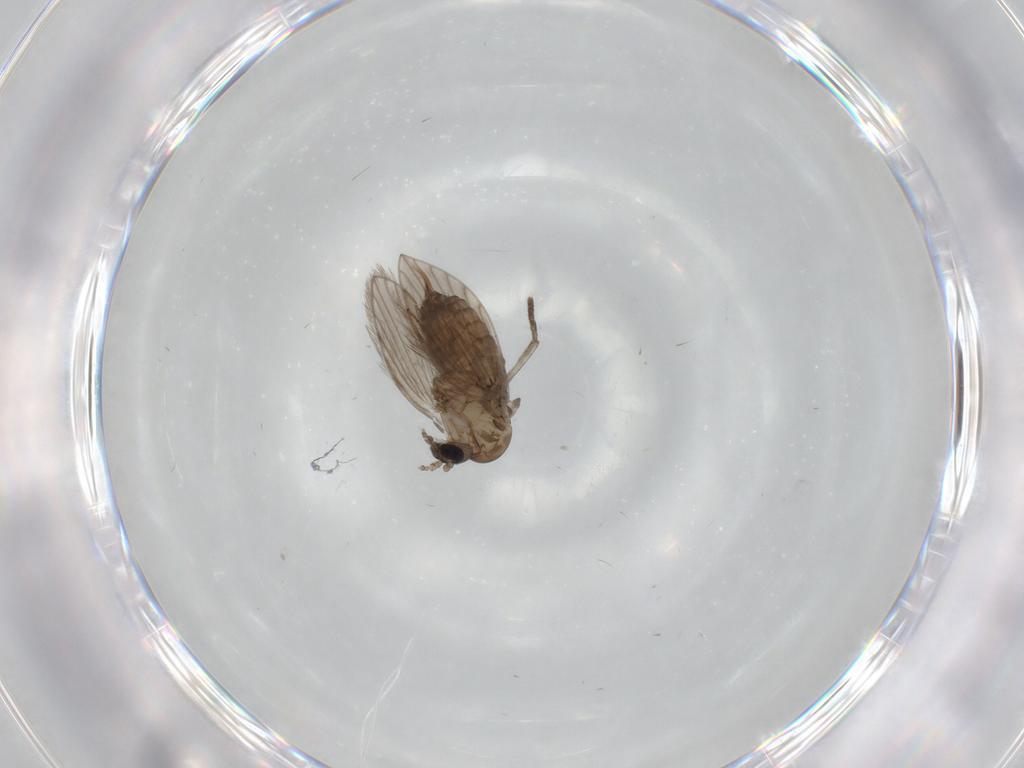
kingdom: Animalia
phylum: Arthropoda
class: Insecta
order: Diptera
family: Psychodidae
